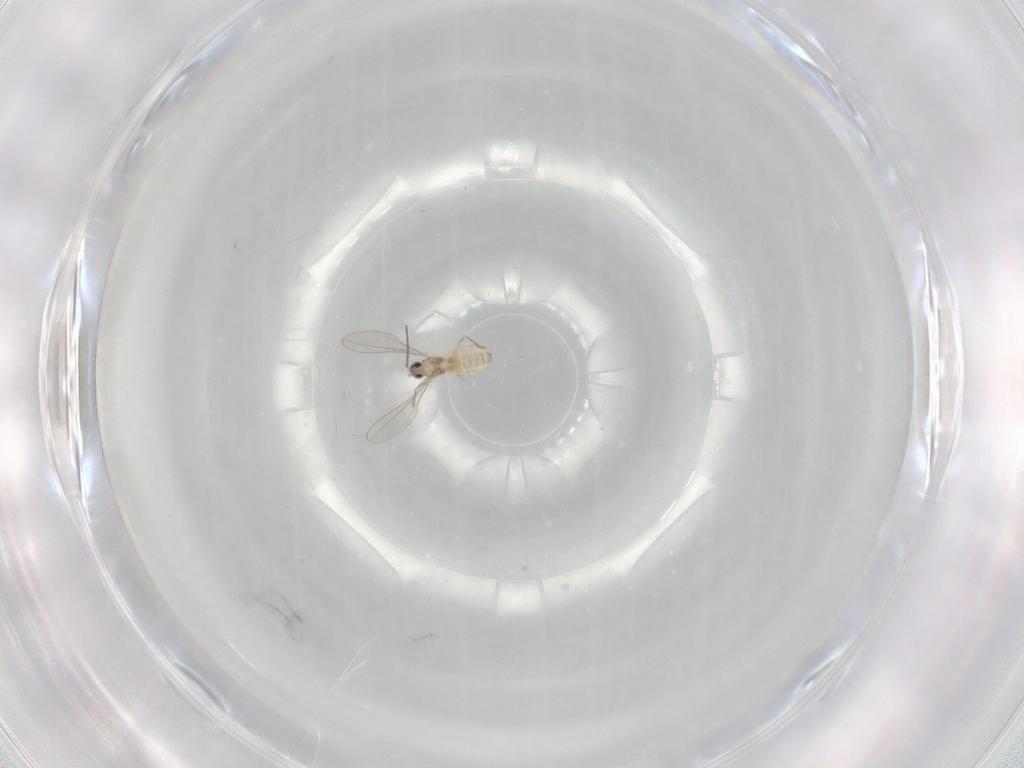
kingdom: Animalia
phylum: Arthropoda
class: Insecta
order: Diptera
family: Cecidomyiidae
